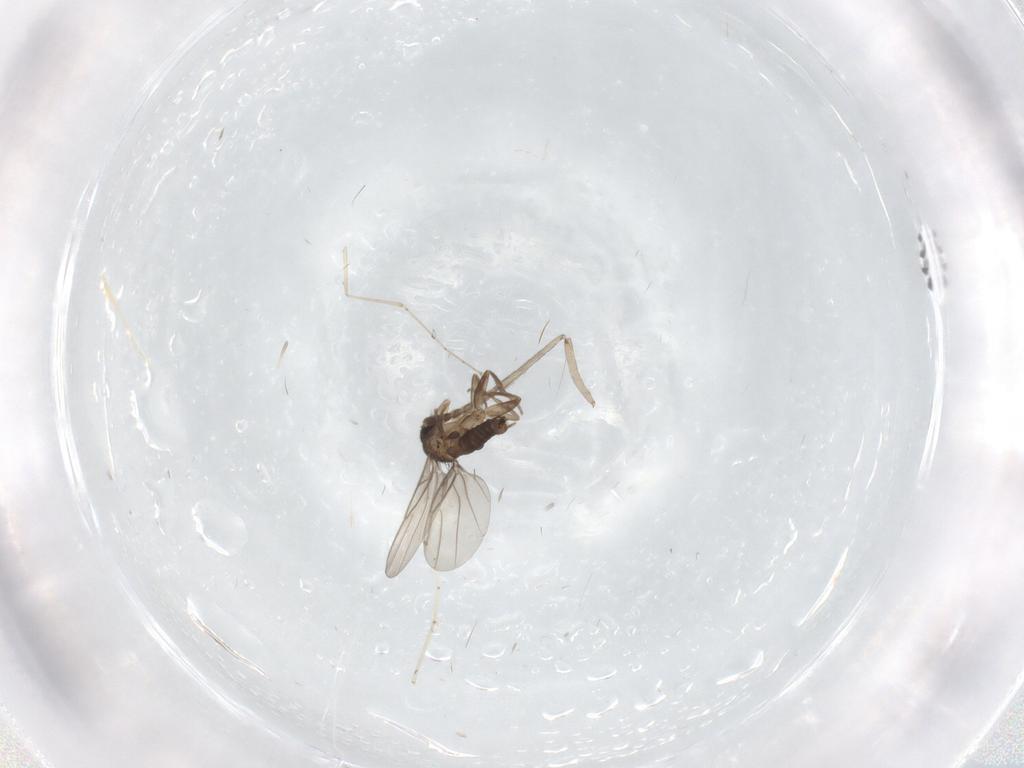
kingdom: Animalia
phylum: Arthropoda
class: Insecta
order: Diptera
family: Psychodidae
